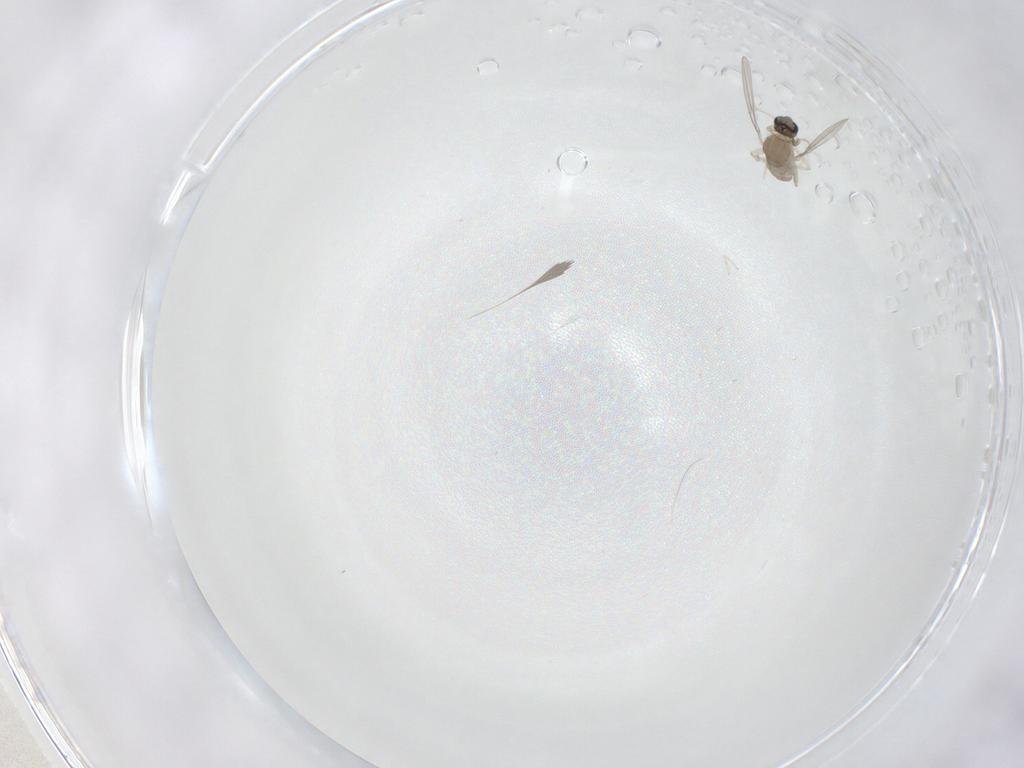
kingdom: Animalia
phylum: Arthropoda
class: Insecta
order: Diptera
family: Cecidomyiidae
